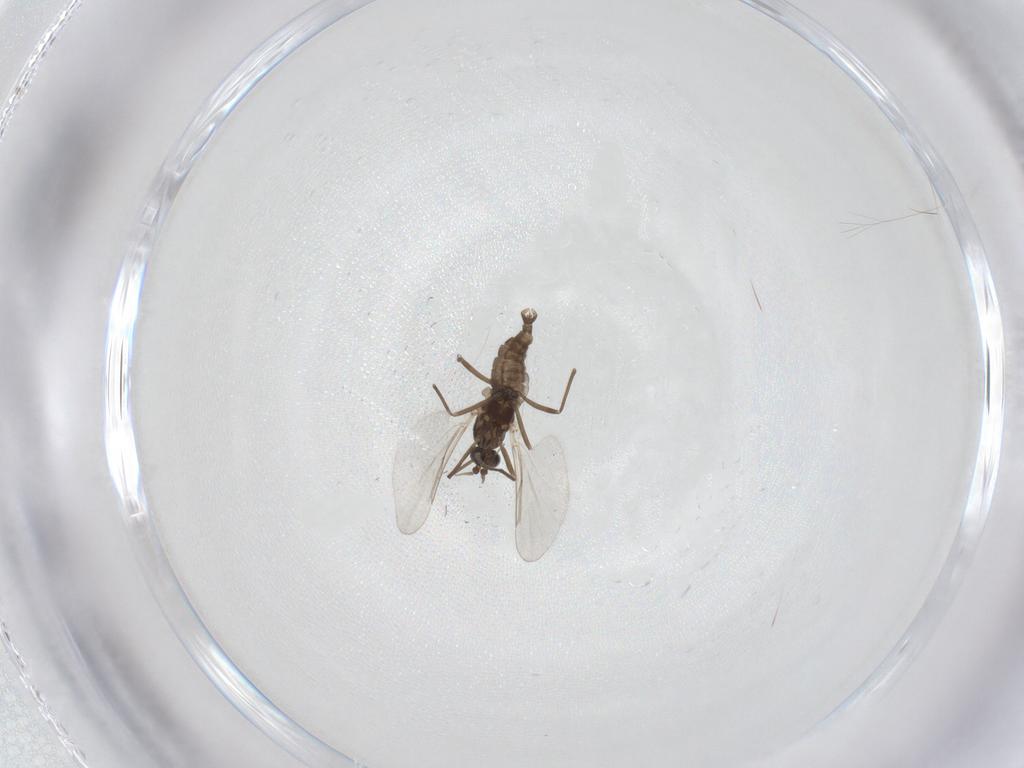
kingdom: Animalia
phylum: Arthropoda
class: Insecta
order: Diptera
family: Cecidomyiidae
